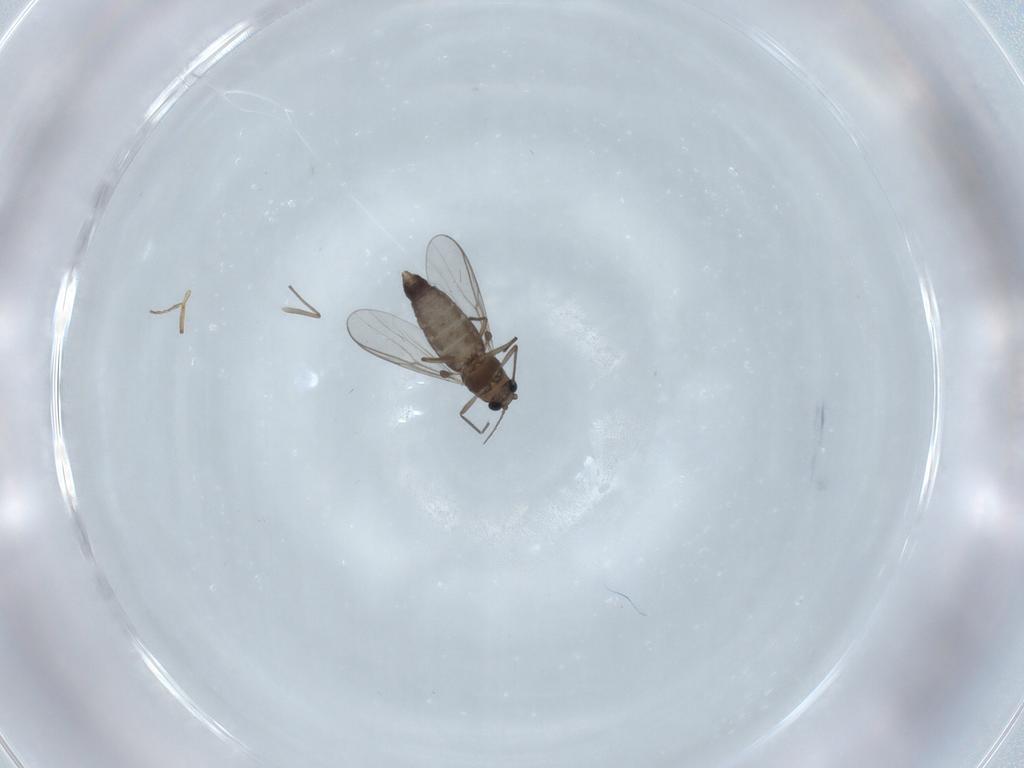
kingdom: Animalia
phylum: Arthropoda
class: Insecta
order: Diptera
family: Chironomidae
